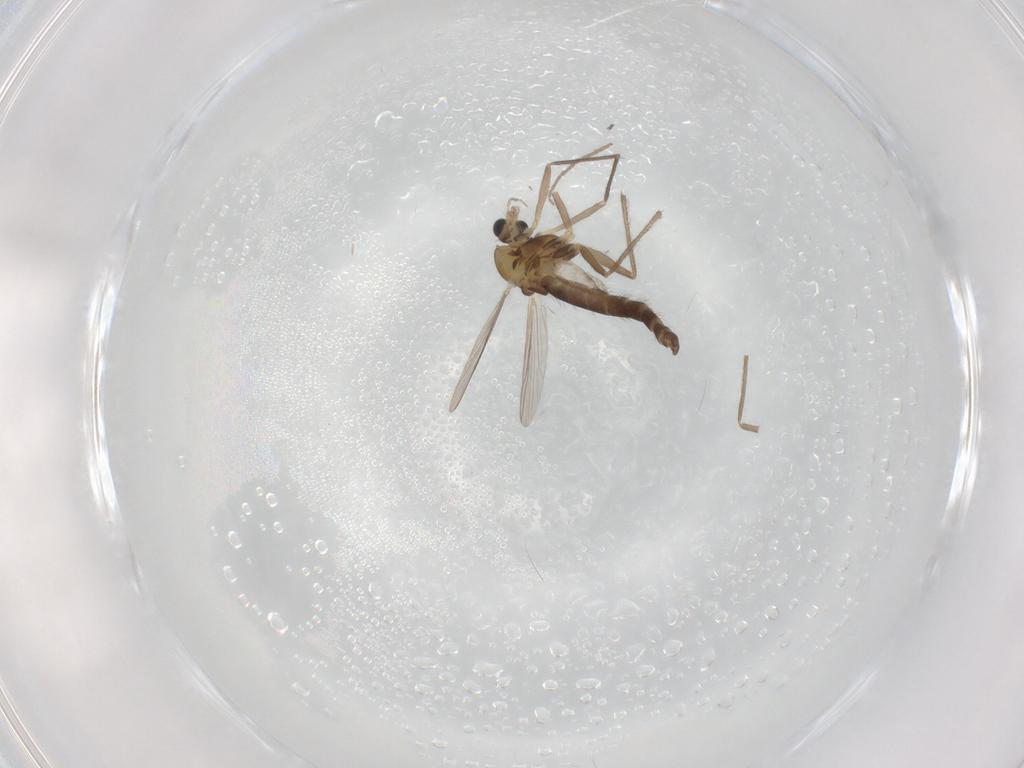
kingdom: Animalia
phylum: Arthropoda
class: Insecta
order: Diptera
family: Chironomidae
